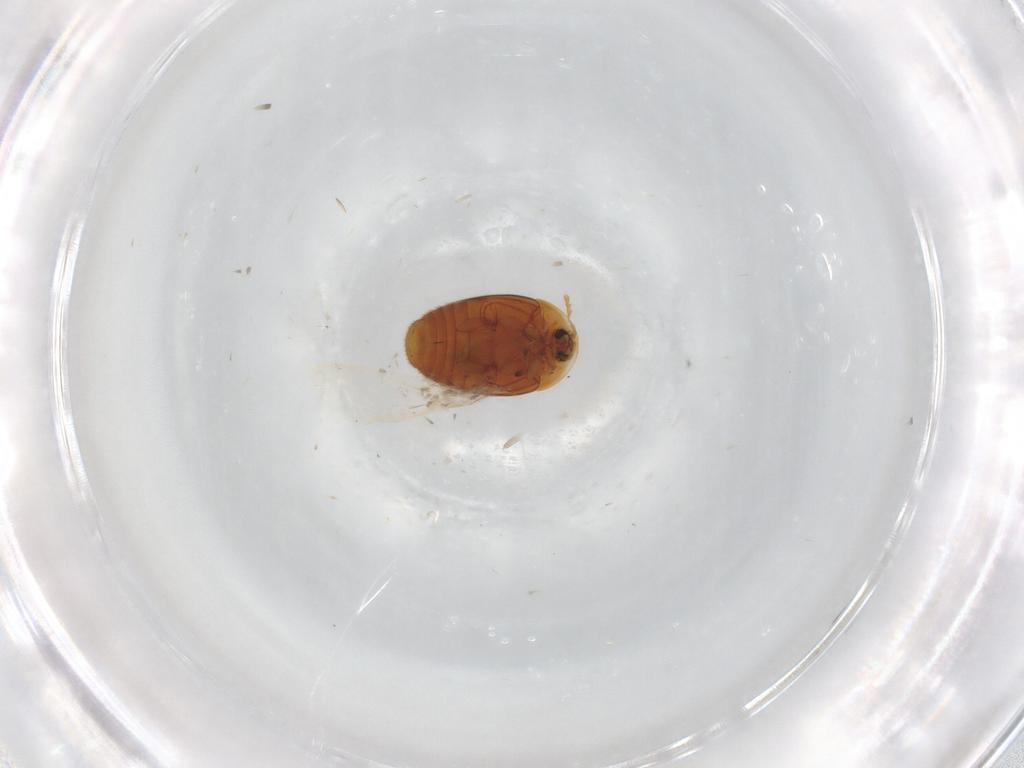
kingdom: Animalia
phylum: Arthropoda
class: Insecta
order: Coleoptera
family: Corylophidae
